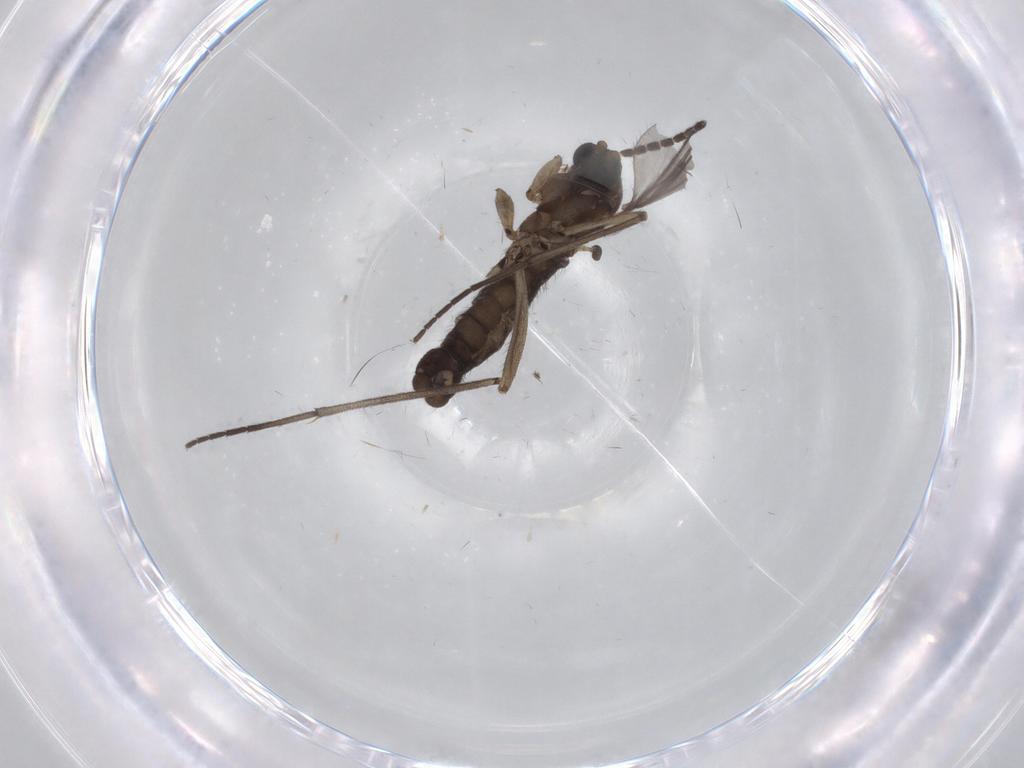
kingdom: Animalia
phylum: Arthropoda
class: Insecta
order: Diptera
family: Sciaridae
